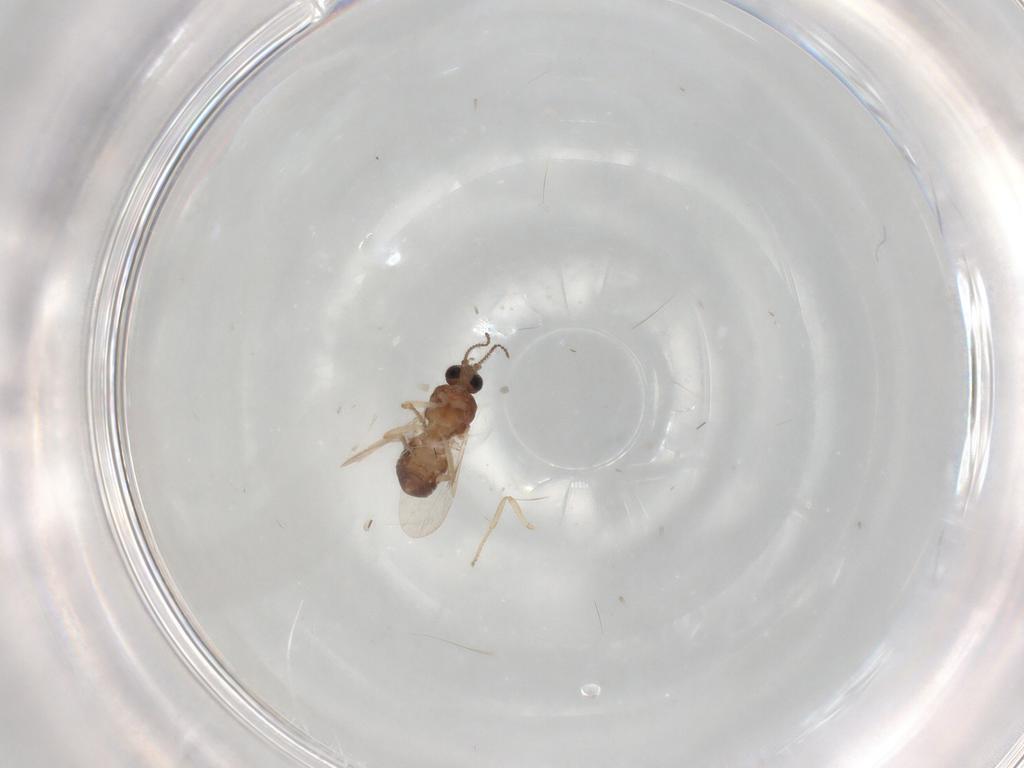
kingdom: Animalia
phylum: Arthropoda
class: Insecta
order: Diptera
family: Ceratopogonidae
